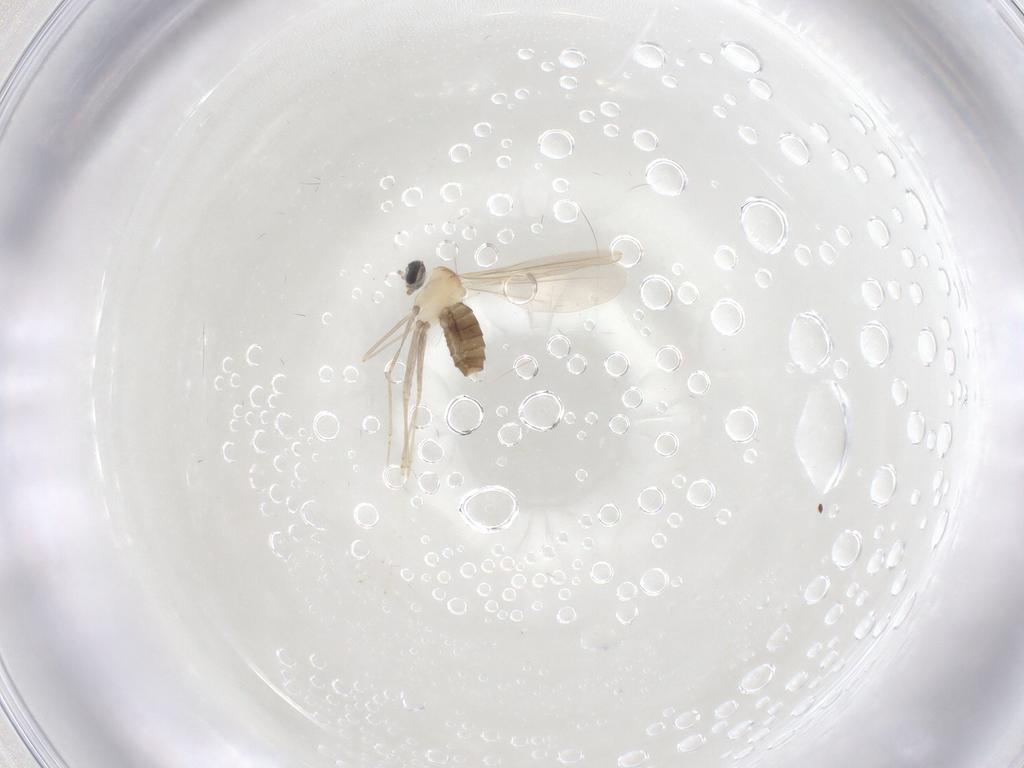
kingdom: Animalia
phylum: Arthropoda
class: Insecta
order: Diptera
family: Cecidomyiidae
